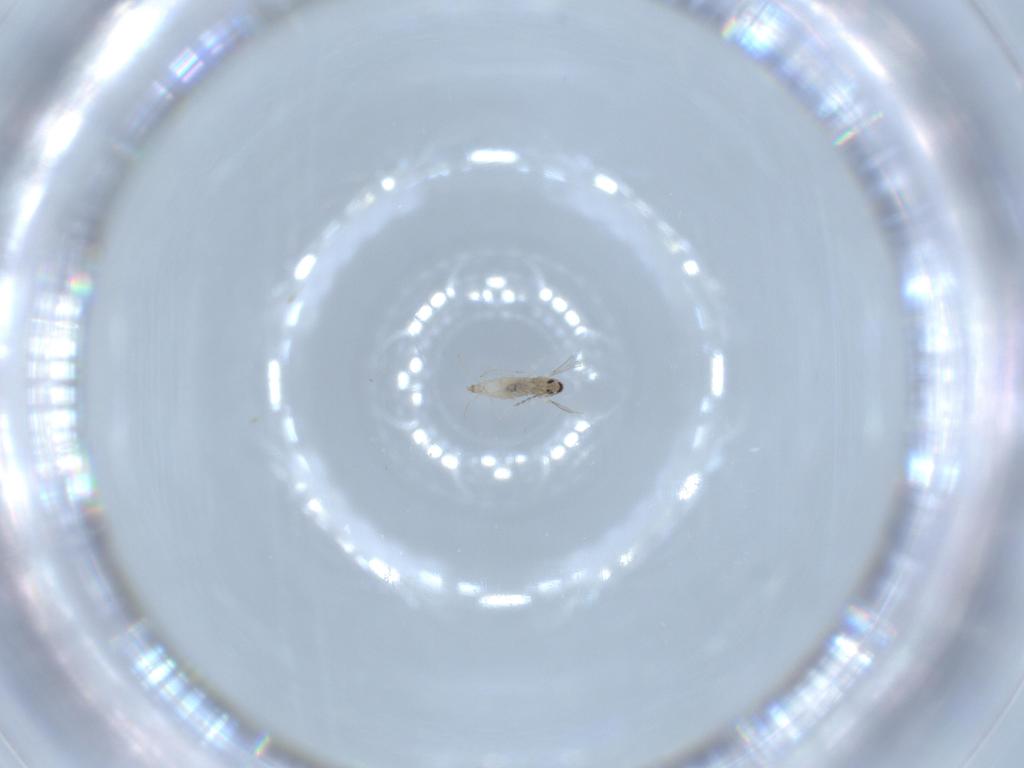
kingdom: Animalia
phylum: Arthropoda
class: Insecta
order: Diptera
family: Cecidomyiidae
